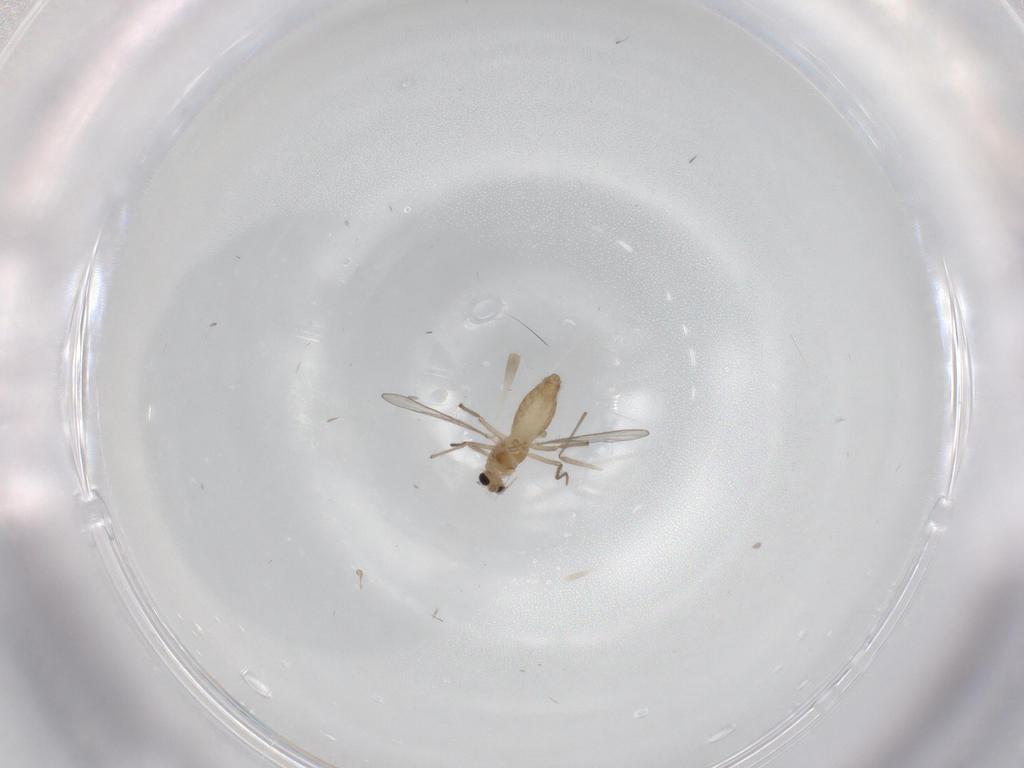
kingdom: Animalia
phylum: Arthropoda
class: Insecta
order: Diptera
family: Chironomidae
